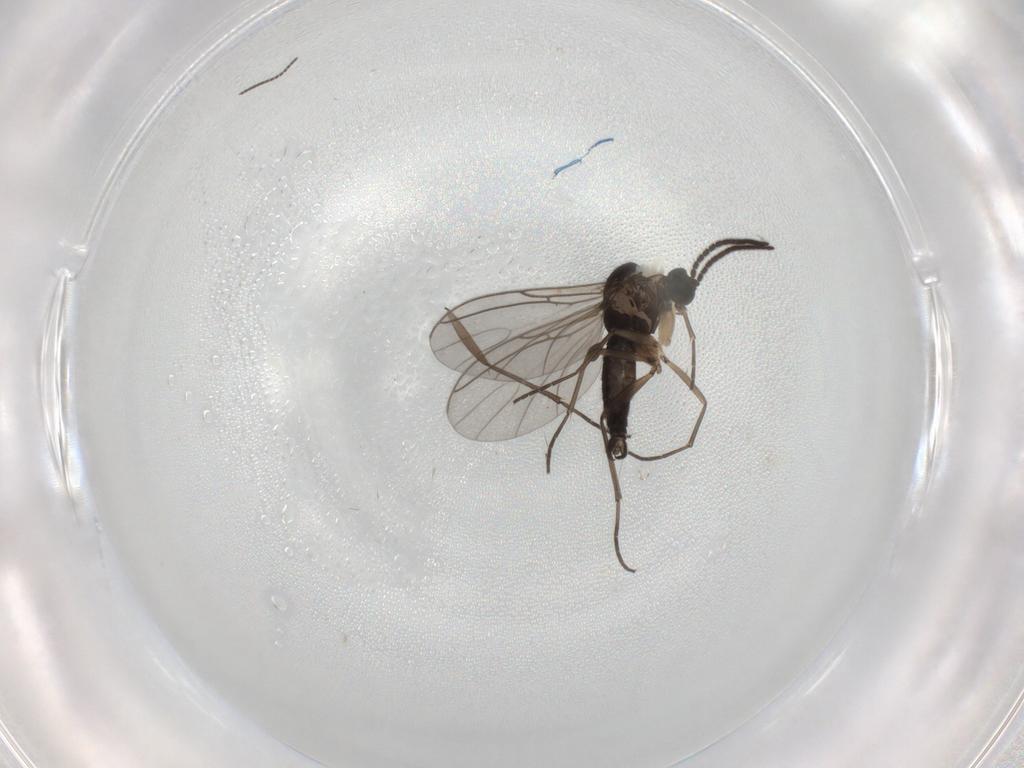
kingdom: Animalia
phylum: Arthropoda
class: Insecta
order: Diptera
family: Sciaridae
